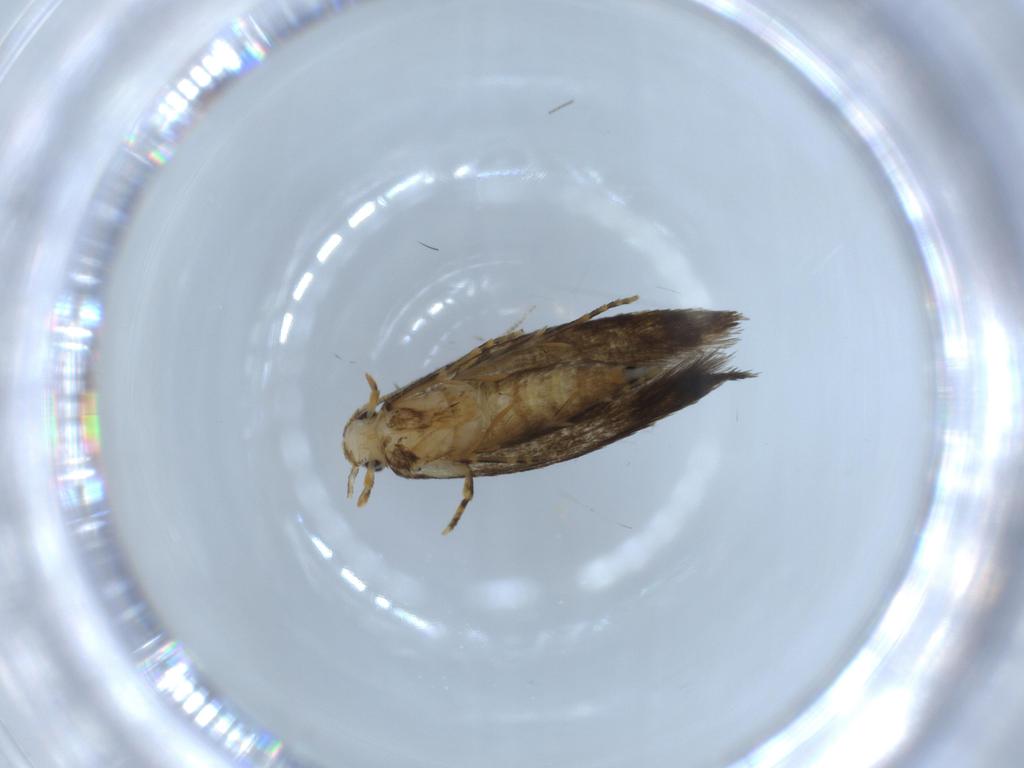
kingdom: Animalia
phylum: Arthropoda
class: Insecta
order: Lepidoptera
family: Tineidae
